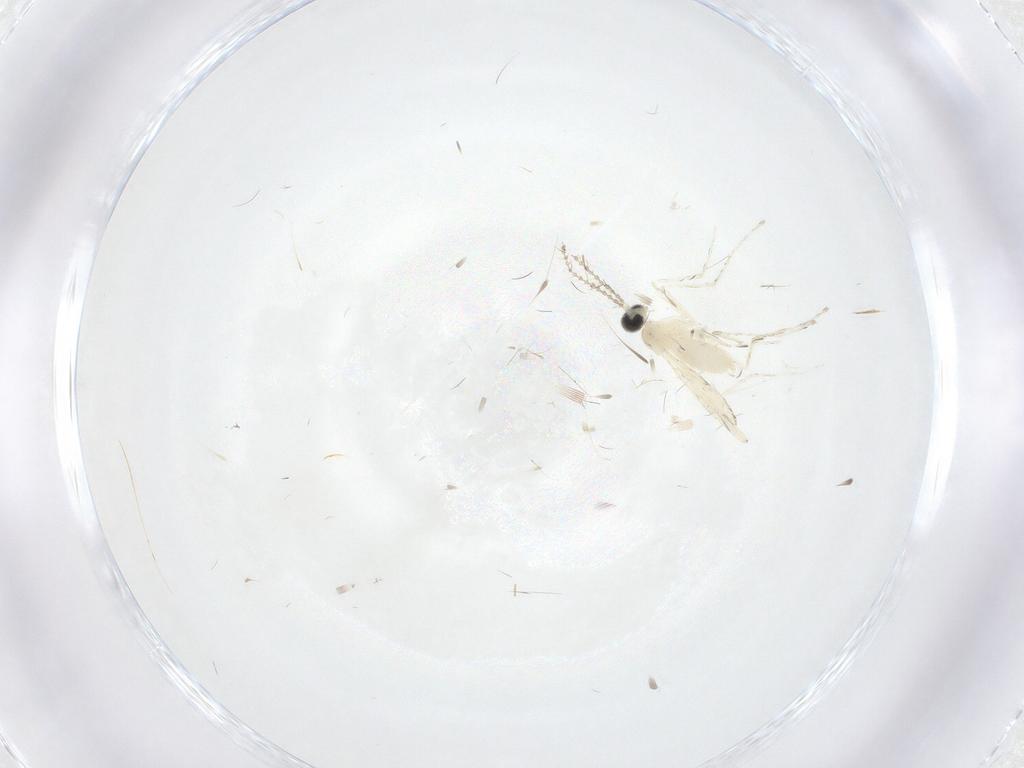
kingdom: Animalia
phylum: Arthropoda
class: Insecta
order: Diptera
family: Cecidomyiidae
